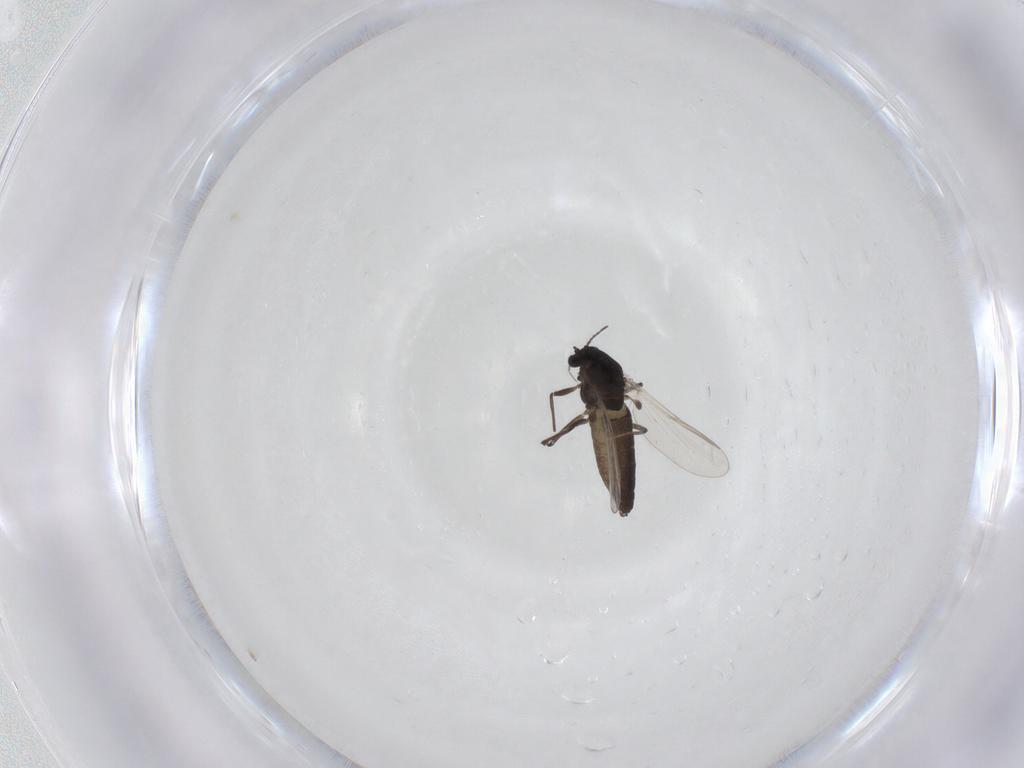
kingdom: Animalia
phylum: Arthropoda
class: Insecta
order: Diptera
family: Chironomidae
